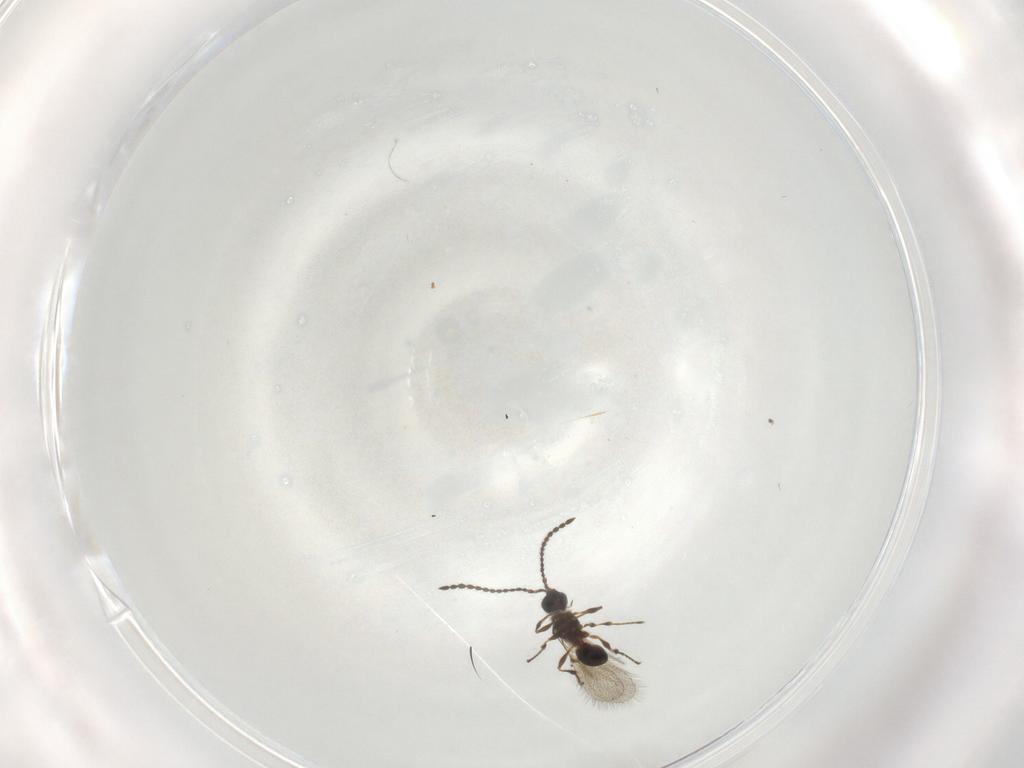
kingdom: Animalia
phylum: Arthropoda
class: Insecta
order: Hymenoptera
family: Diapriidae
